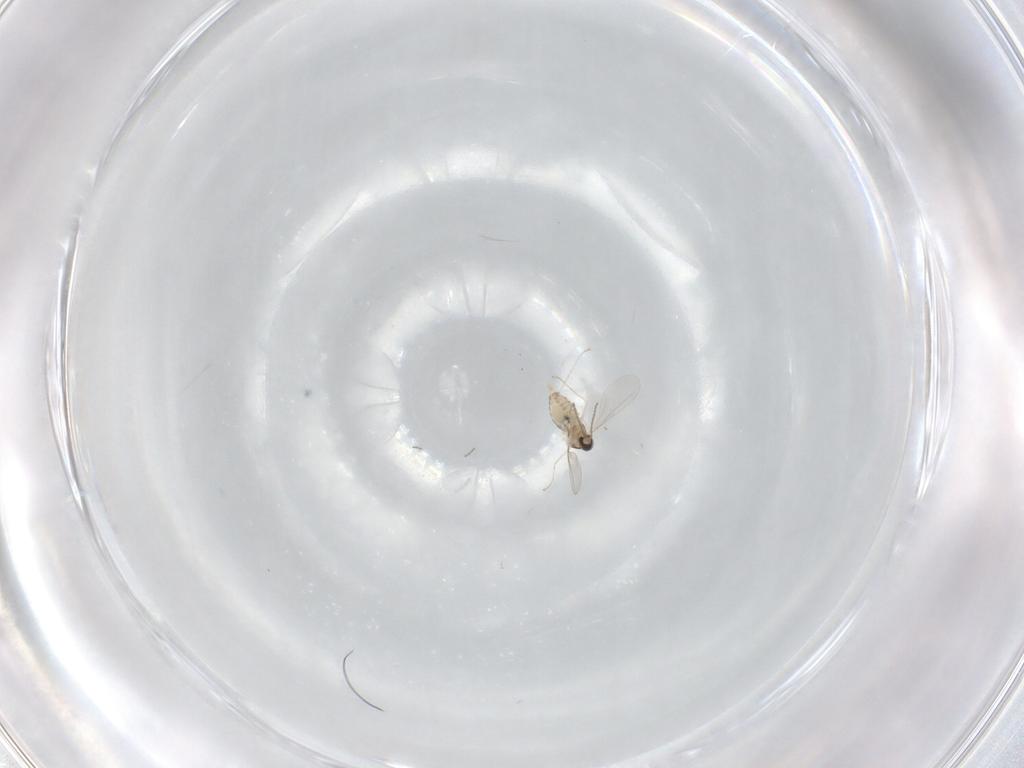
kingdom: Animalia
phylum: Arthropoda
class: Insecta
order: Diptera
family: Cecidomyiidae
